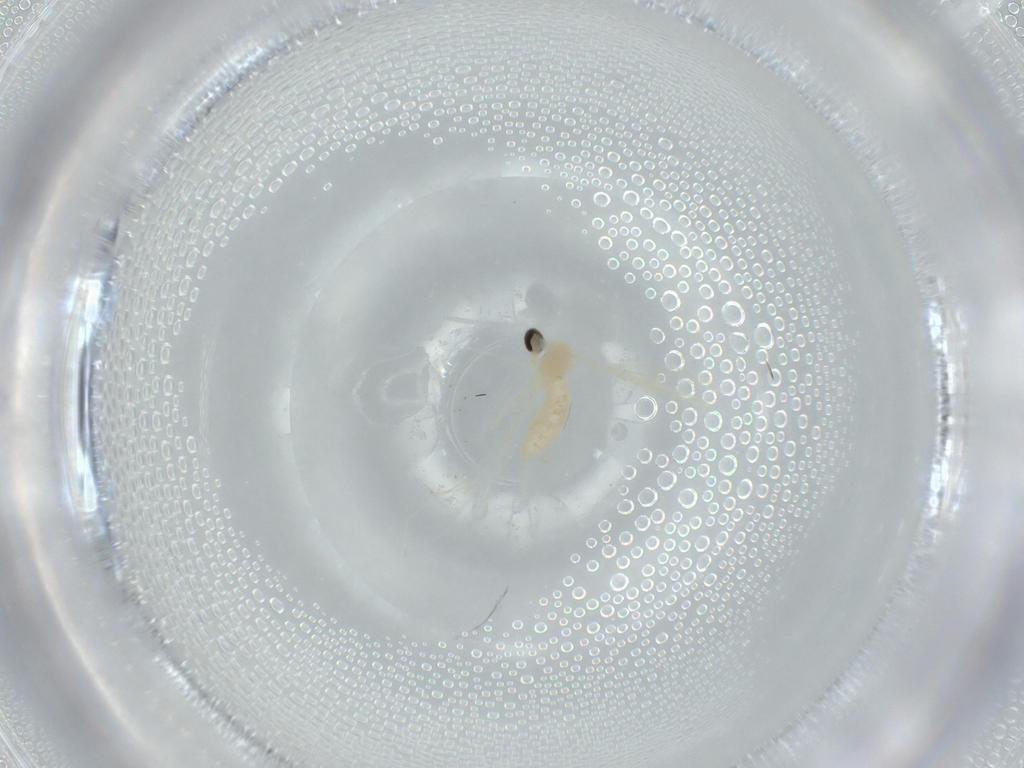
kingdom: Animalia
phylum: Arthropoda
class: Insecta
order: Diptera
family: Cecidomyiidae
